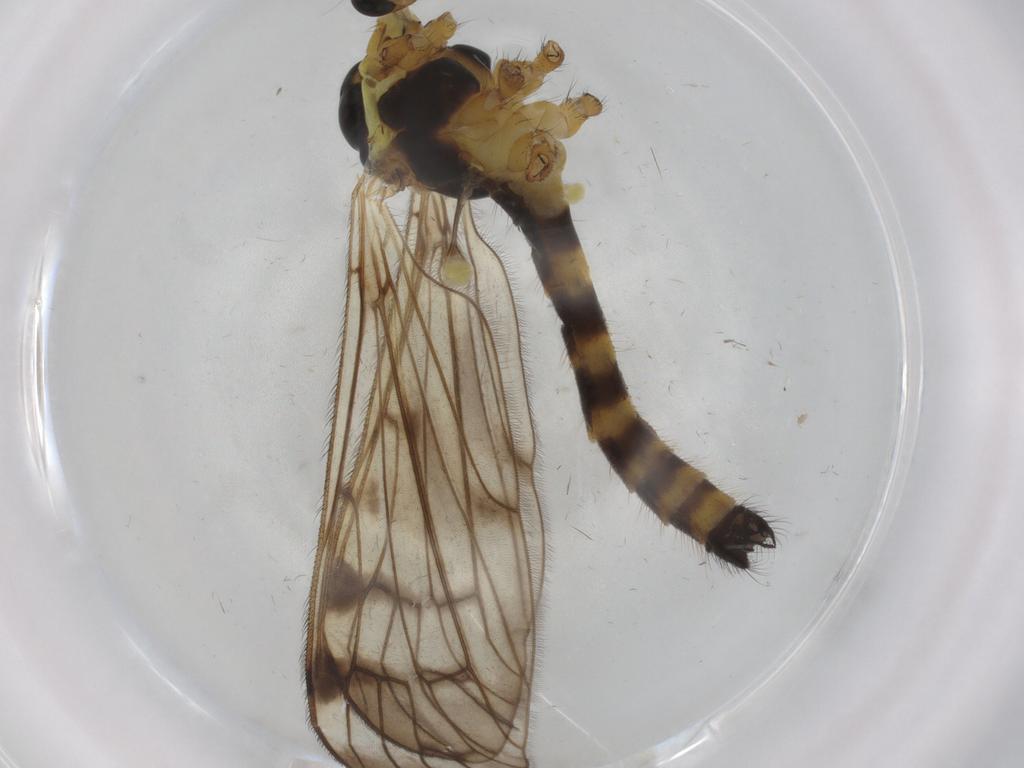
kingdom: Animalia
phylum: Arthropoda
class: Insecta
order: Diptera
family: Limoniidae
